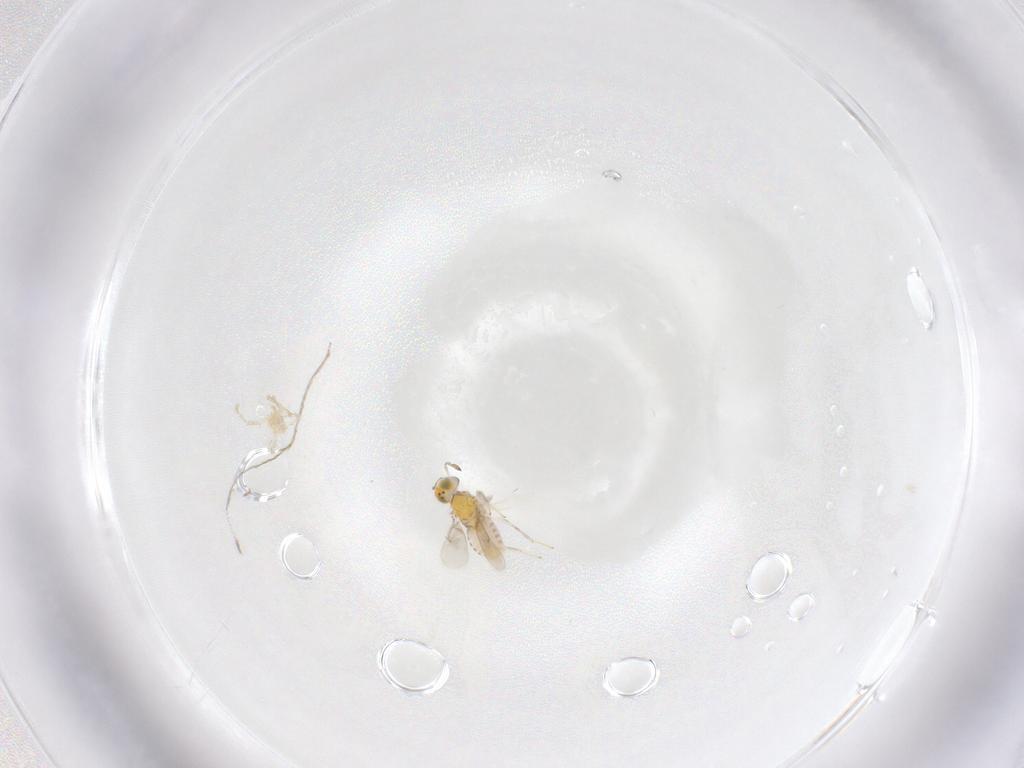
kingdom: Animalia
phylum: Arthropoda
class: Insecta
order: Hymenoptera
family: Aphelinidae
